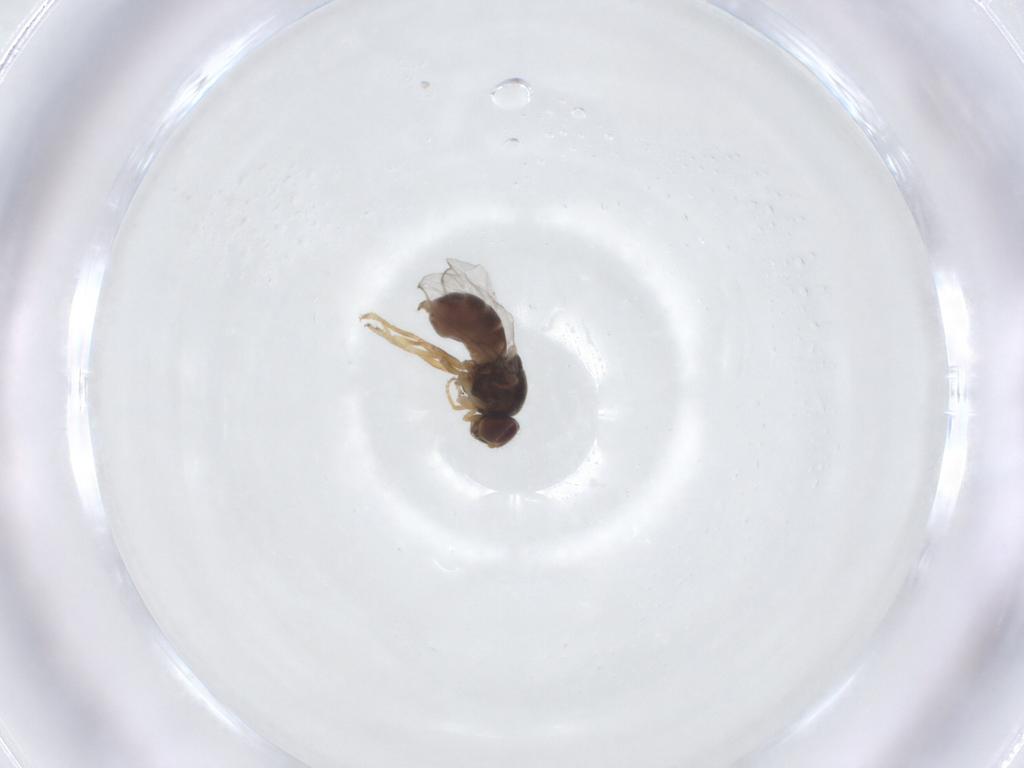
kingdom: Animalia
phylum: Arthropoda
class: Insecta
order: Diptera
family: Chloropidae
